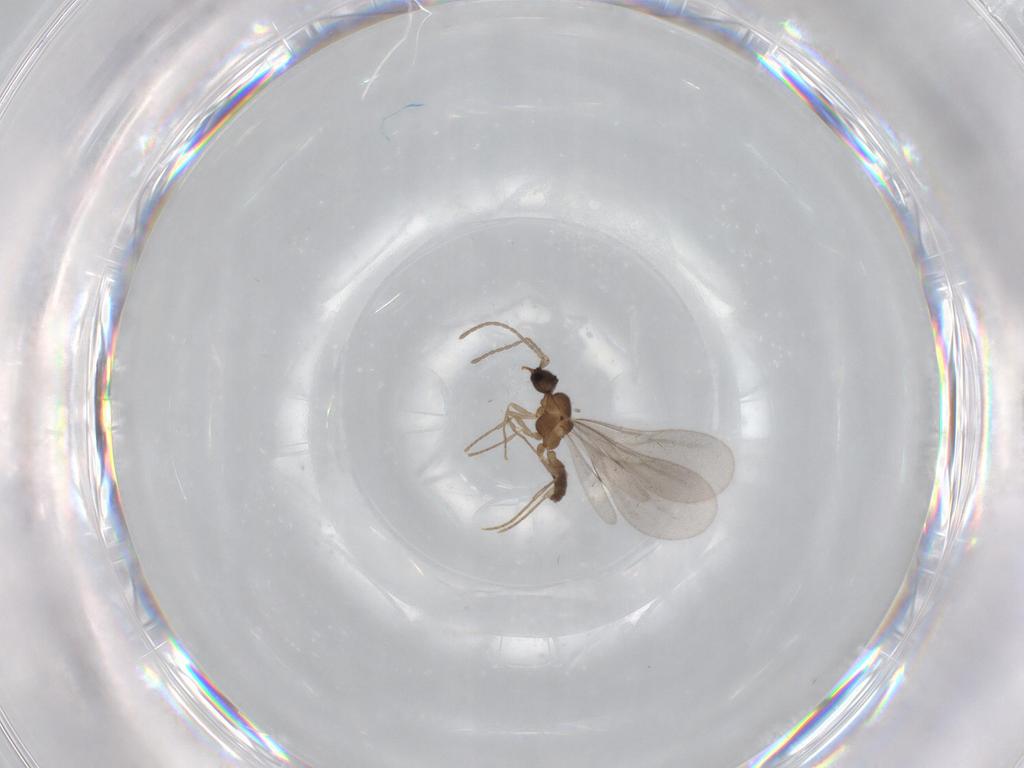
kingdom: Animalia
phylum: Arthropoda
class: Insecta
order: Hymenoptera
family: Formicidae
